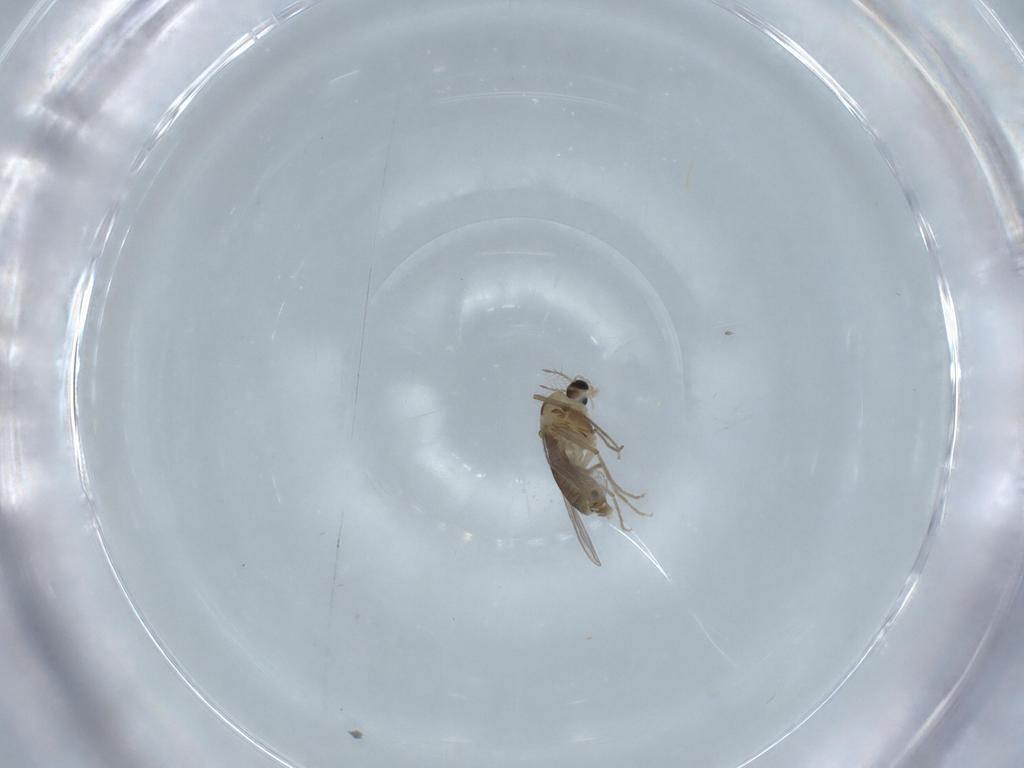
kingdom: Animalia
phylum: Arthropoda
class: Insecta
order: Diptera
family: Chironomidae
